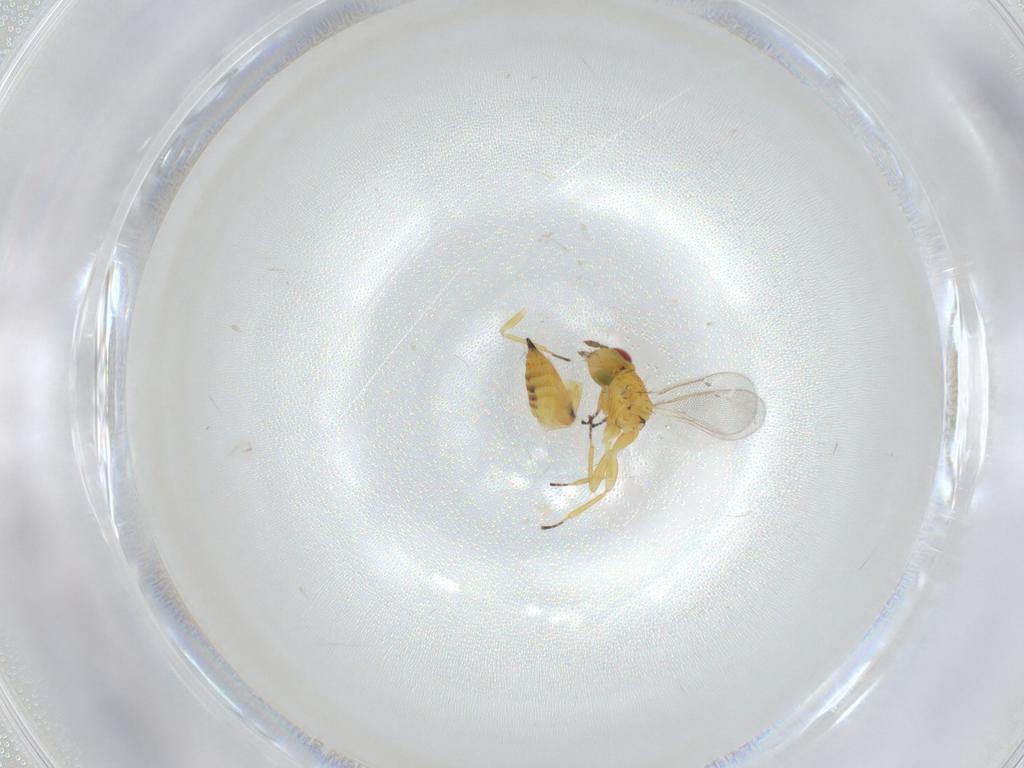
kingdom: Animalia
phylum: Arthropoda
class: Insecta
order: Hymenoptera
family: Eulophidae
